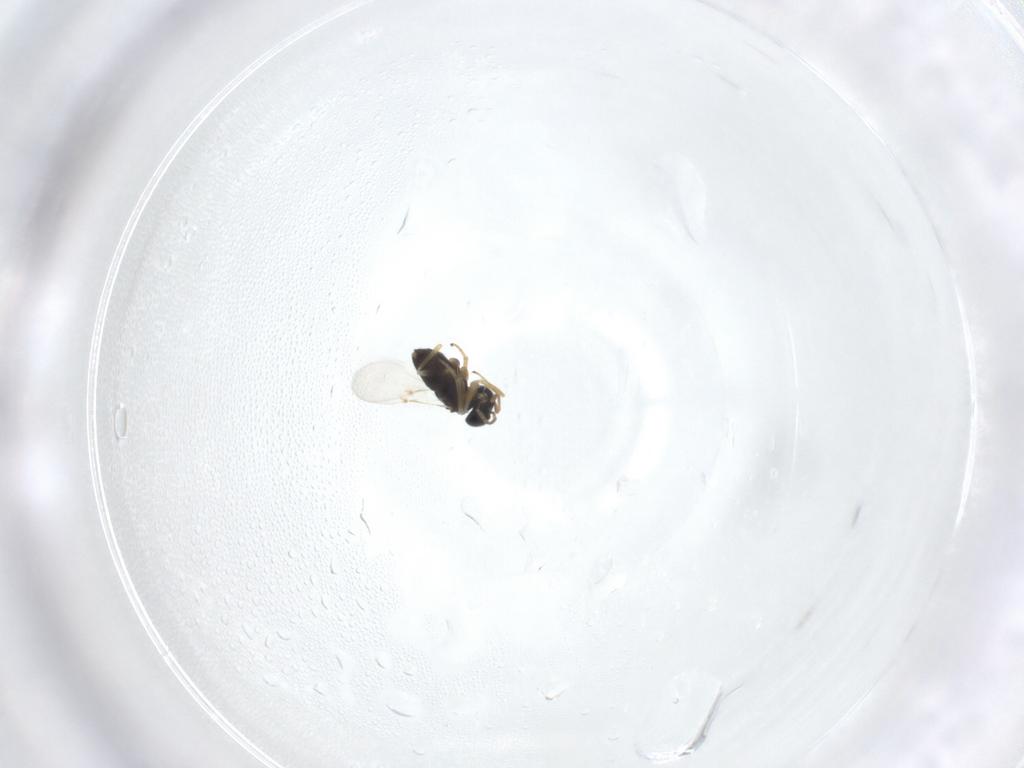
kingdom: Animalia
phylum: Arthropoda
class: Insecta
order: Hymenoptera
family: Encyrtidae
